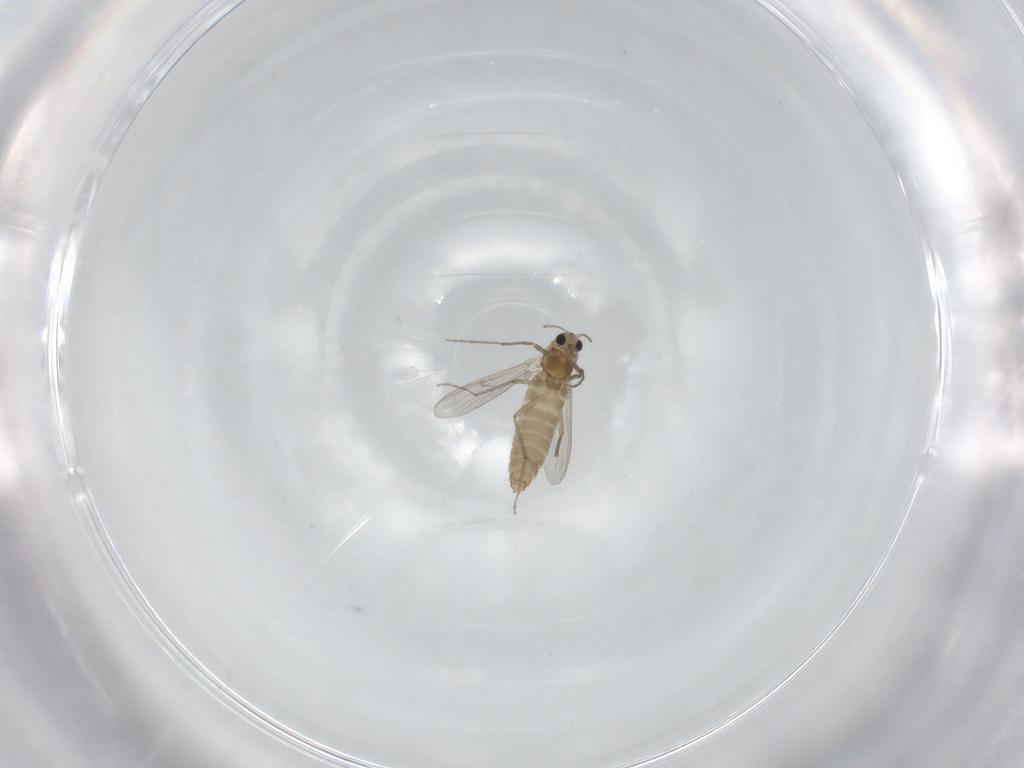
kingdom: Animalia
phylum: Arthropoda
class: Insecta
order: Diptera
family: Chironomidae
